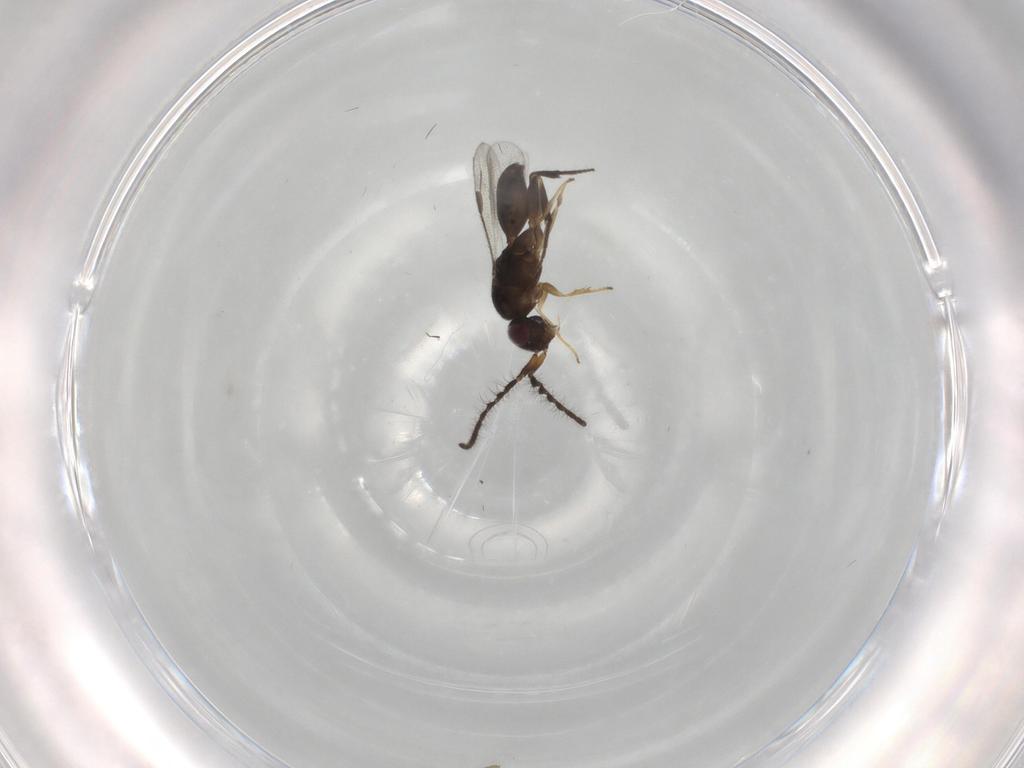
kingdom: Animalia
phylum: Arthropoda
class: Insecta
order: Hymenoptera
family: Megaspilidae
